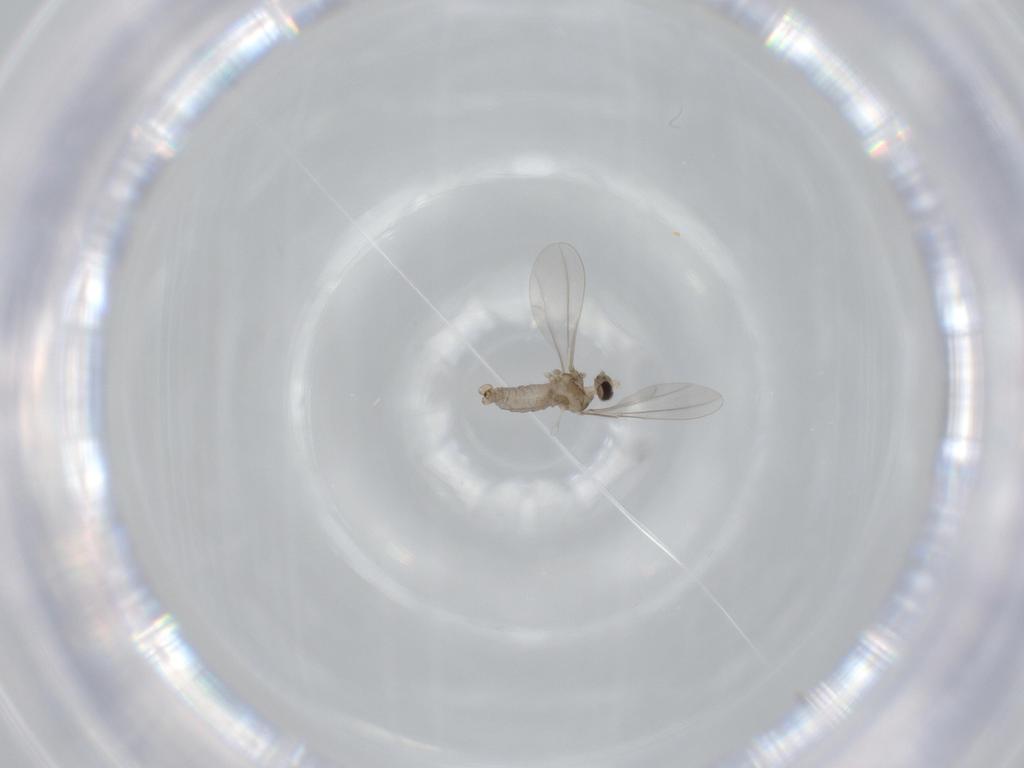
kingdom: Animalia
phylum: Arthropoda
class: Insecta
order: Diptera
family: Cecidomyiidae
